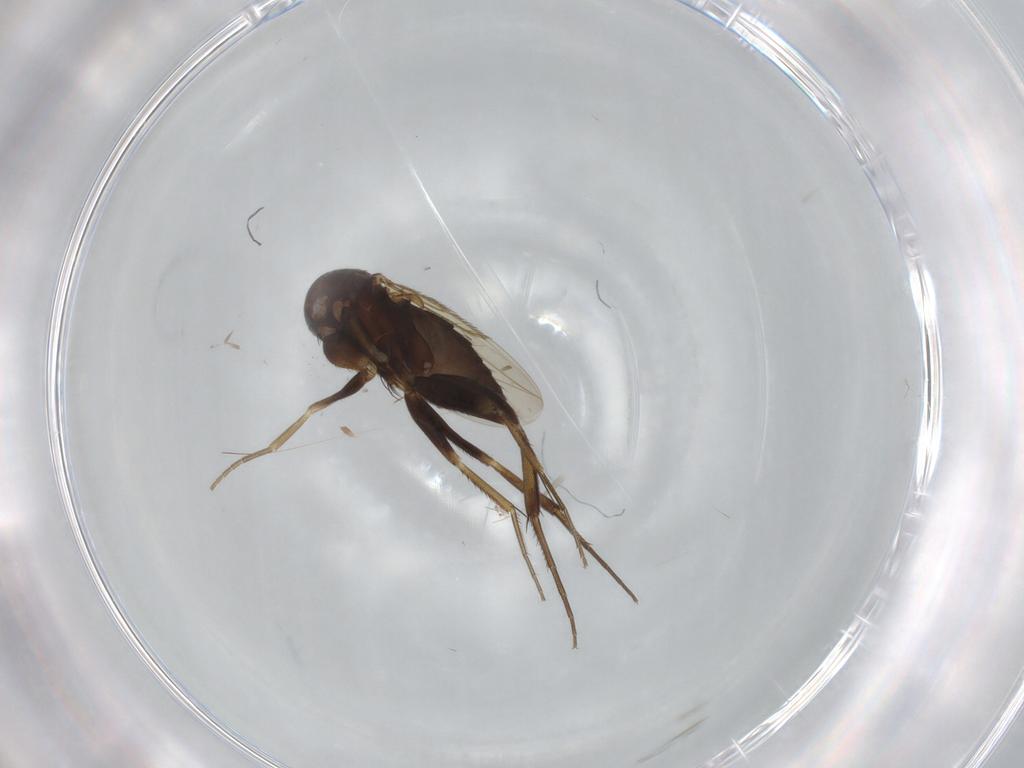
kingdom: Animalia
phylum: Arthropoda
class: Insecta
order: Diptera
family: Phoridae
